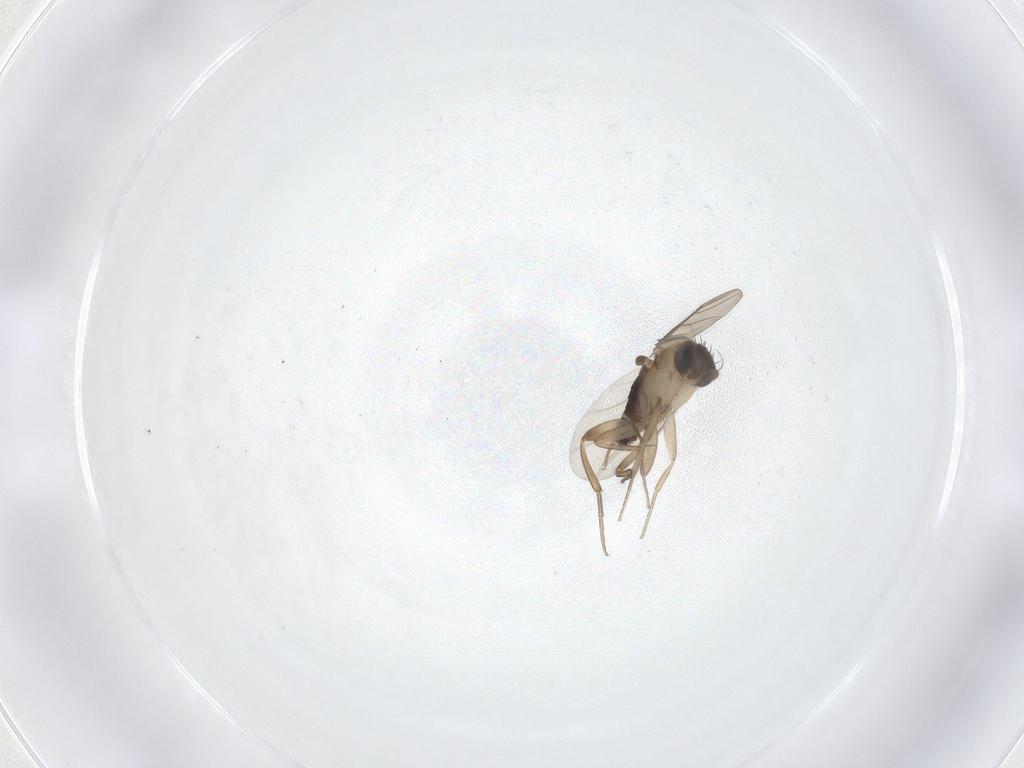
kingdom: Animalia
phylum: Arthropoda
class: Insecta
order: Diptera
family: Phoridae
